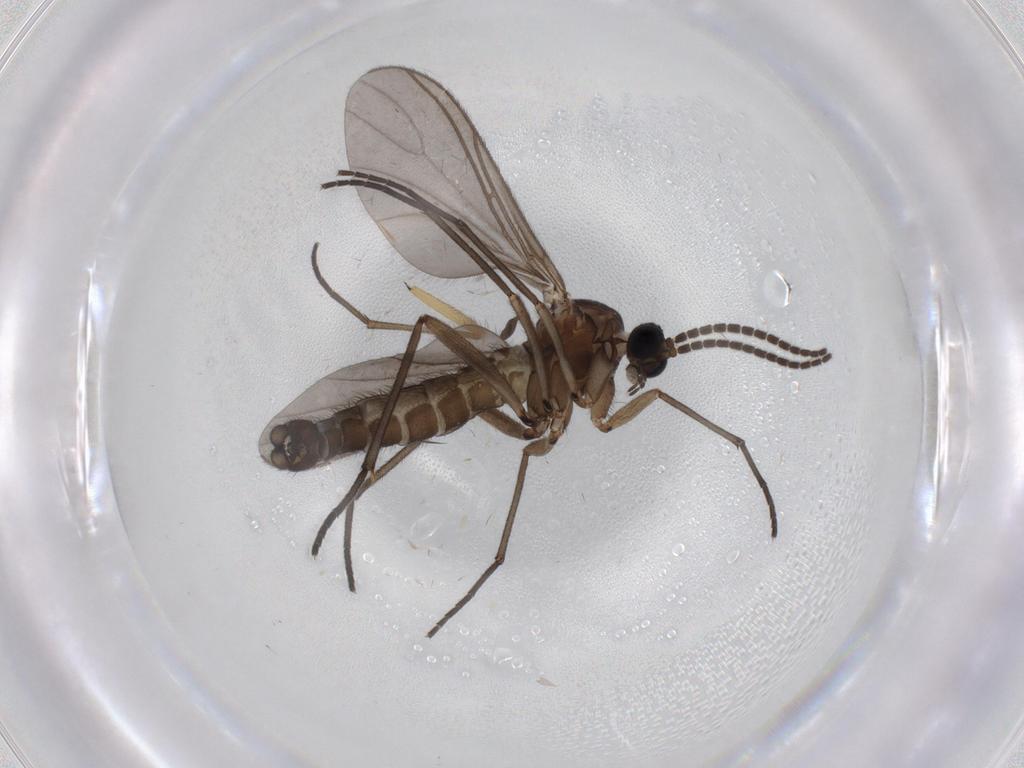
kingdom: Animalia
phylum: Arthropoda
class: Insecta
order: Diptera
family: Sciaridae
